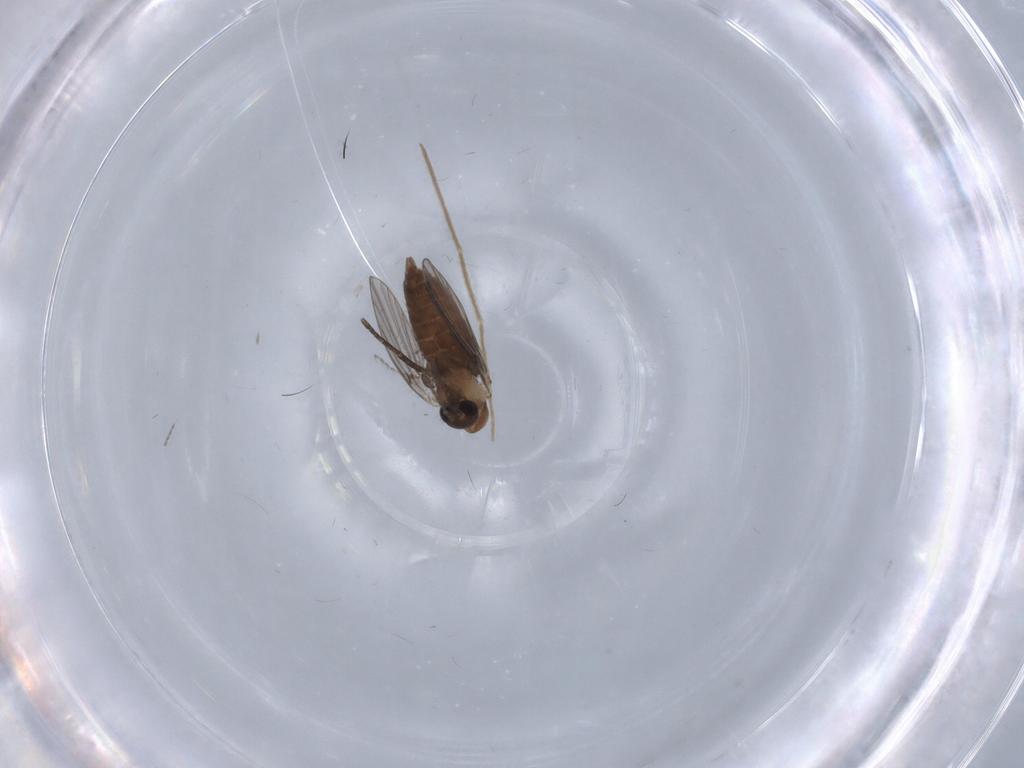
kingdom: Animalia
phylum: Arthropoda
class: Insecta
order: Diptera
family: Chironomidae
